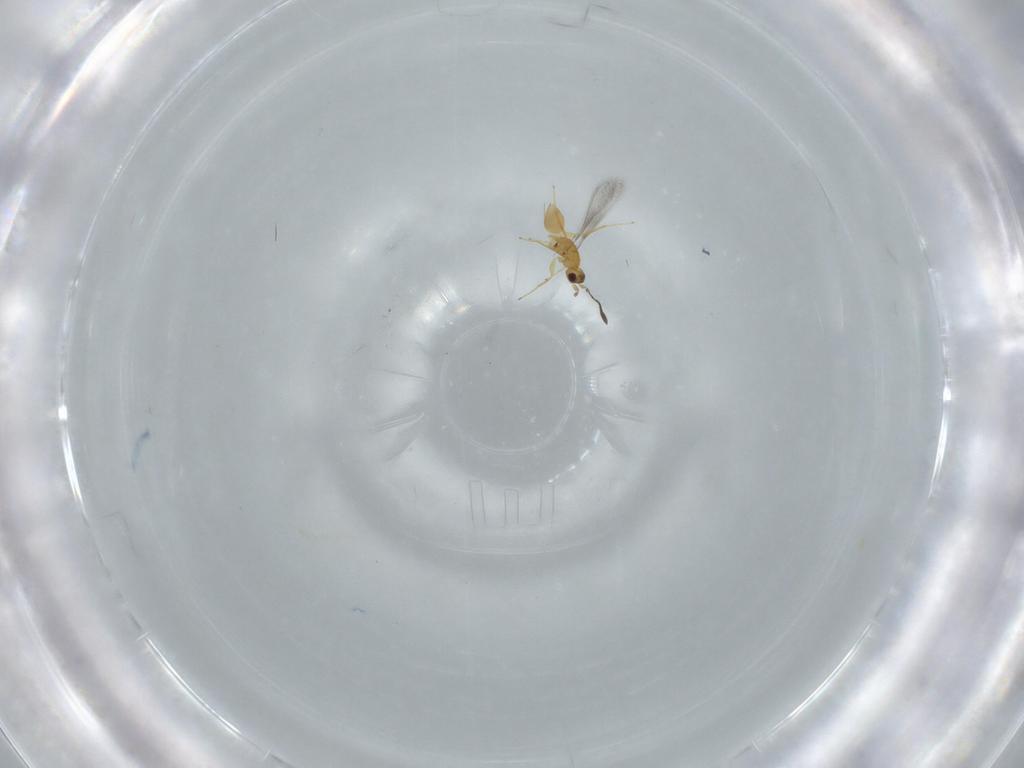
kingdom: Animalia
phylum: Arthropoda
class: Insecta
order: Hymenoptera
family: Mymaridae
